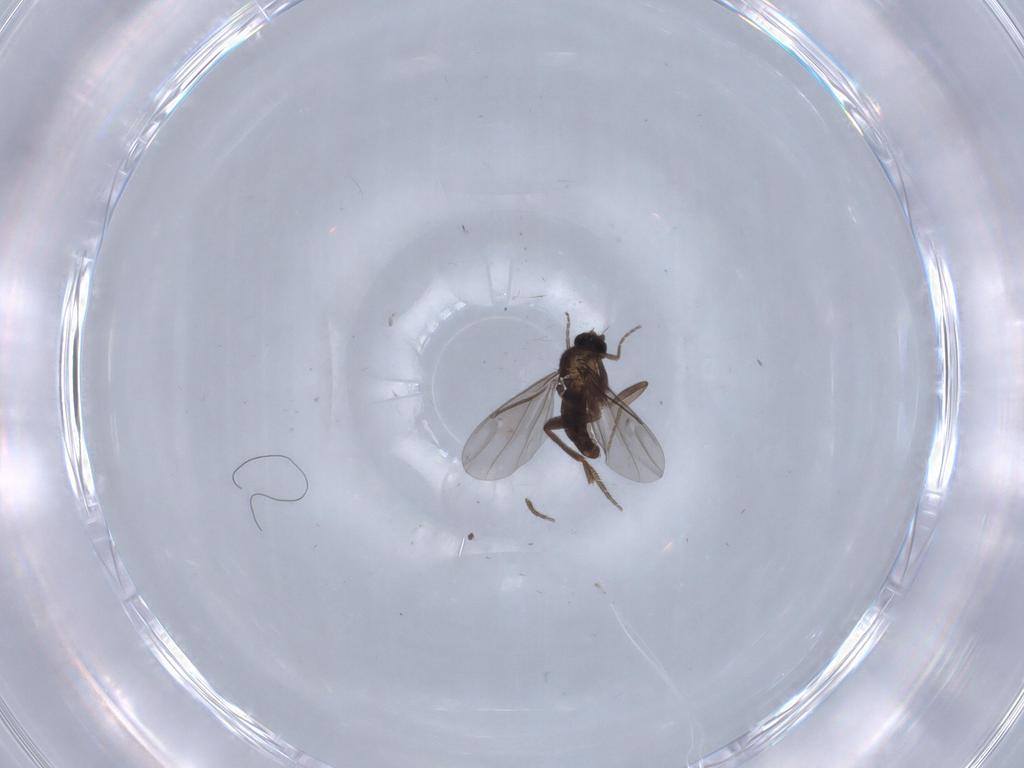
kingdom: Animalia
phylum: Arthropoda
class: Insecta
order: Diptera
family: Phoridae
